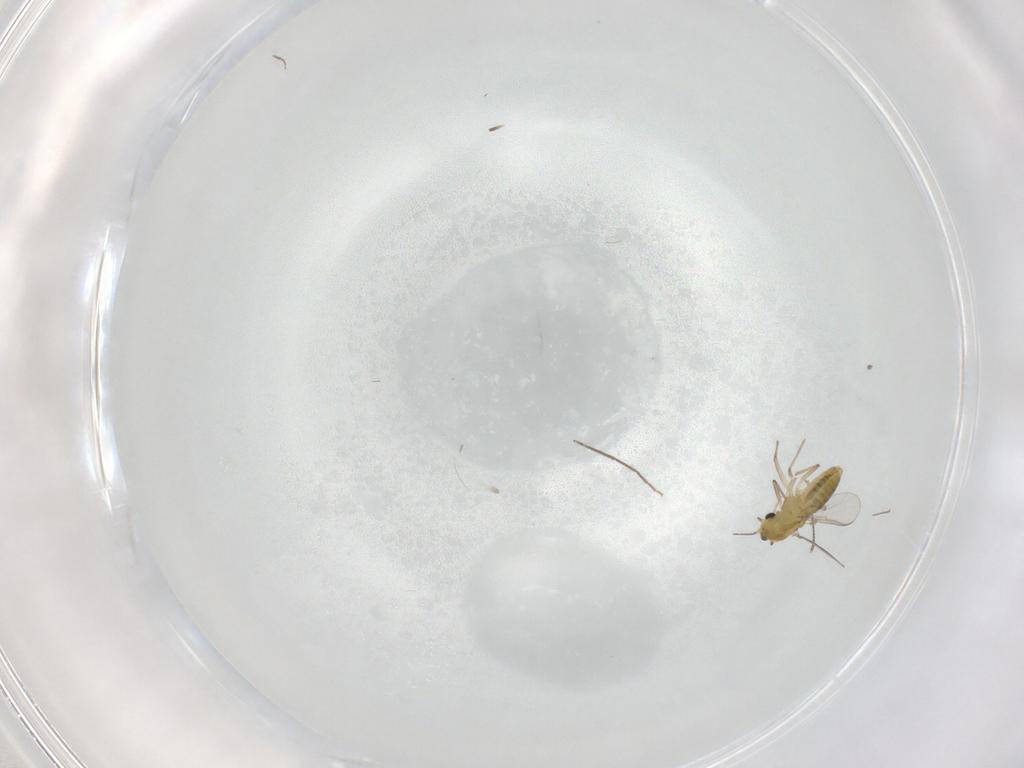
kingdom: Animalia
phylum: Arthropoda
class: Insecta
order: Diptera
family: Chironomidae
